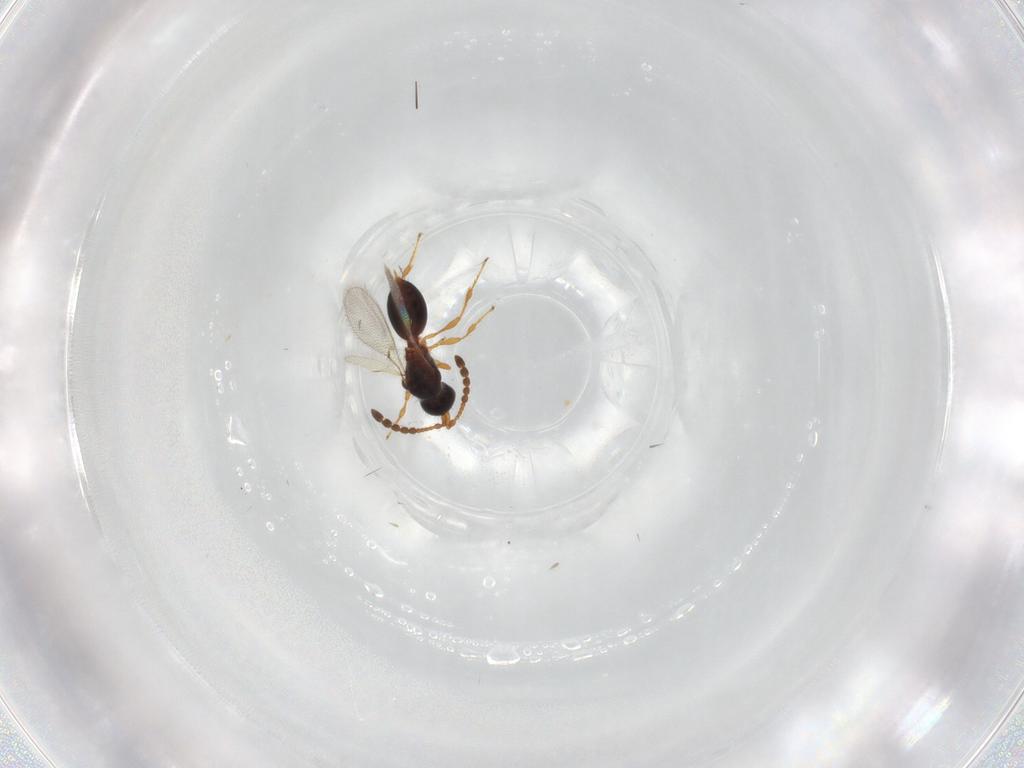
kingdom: Animalia
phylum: Arthropoda
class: Insecta
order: Hymenoptera
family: Diapriidae
